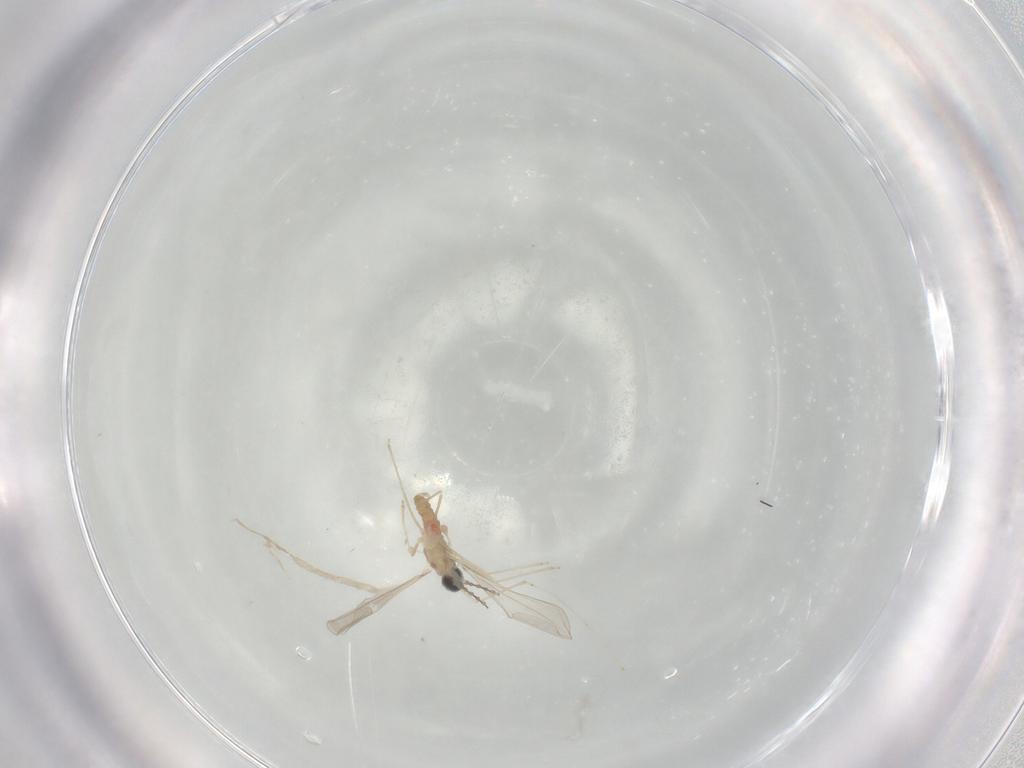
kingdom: Animalia
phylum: Arthropoda
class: Insecta
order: Diptera
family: Cecidomyiidae
